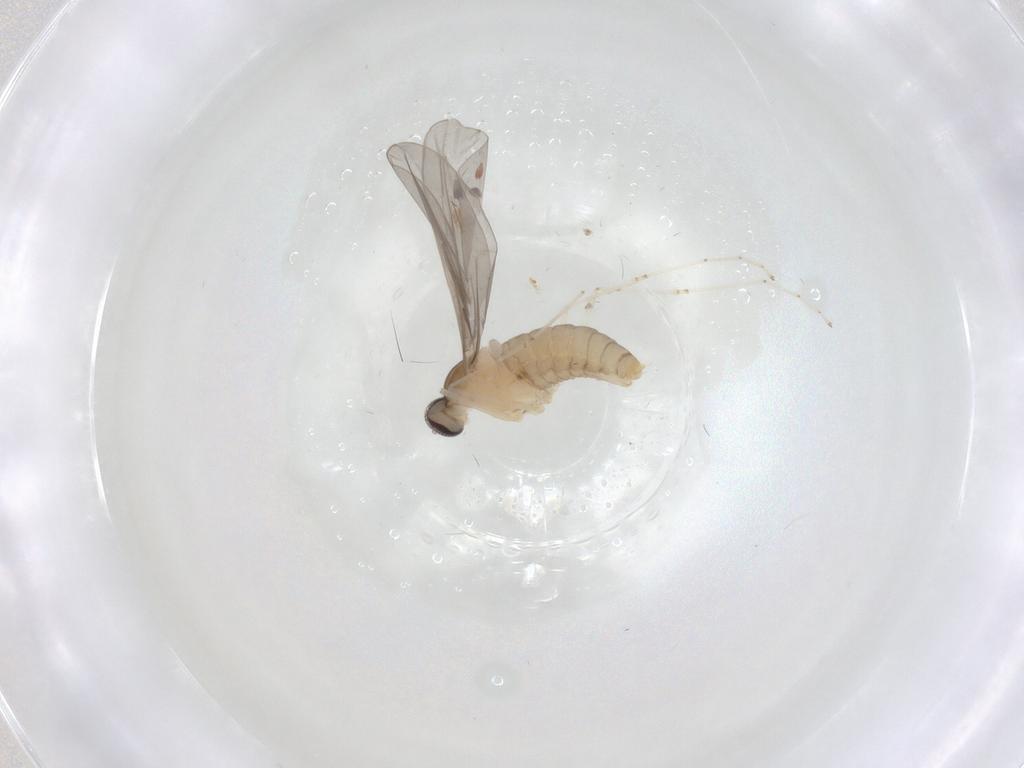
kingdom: Animalia
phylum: Arthropoda
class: Insecta
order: Diptera
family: Cecidomyiidae
